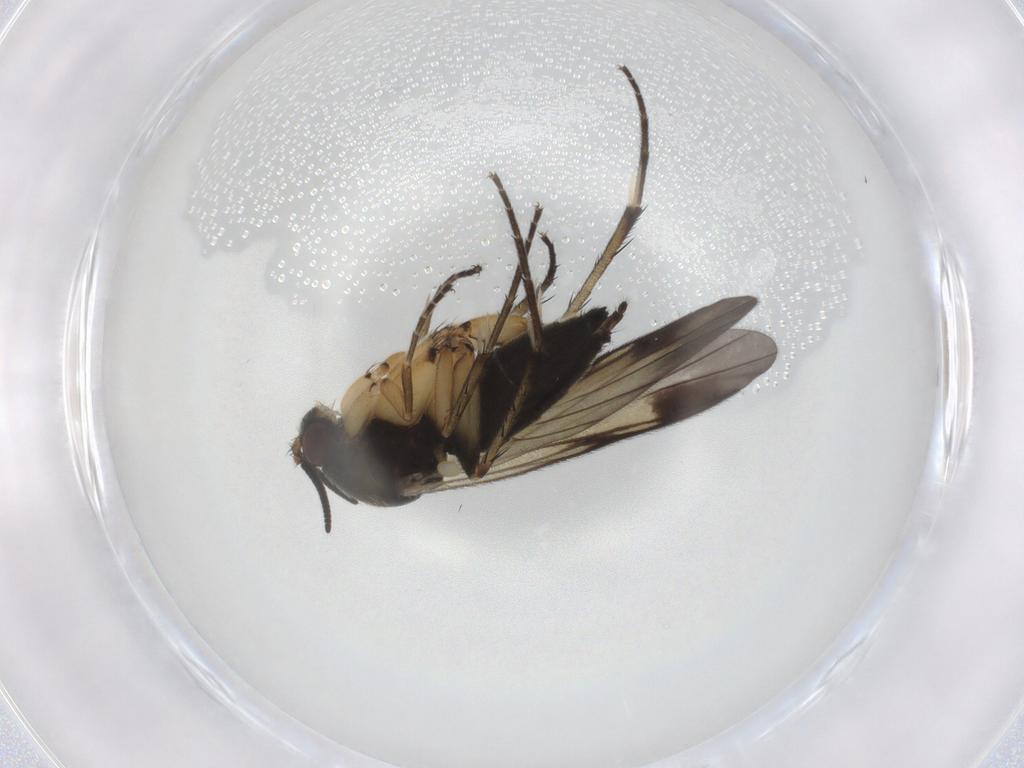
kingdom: Animalia
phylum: Arthropoda
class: Insecta
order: Diptera
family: Mycetophilidae
